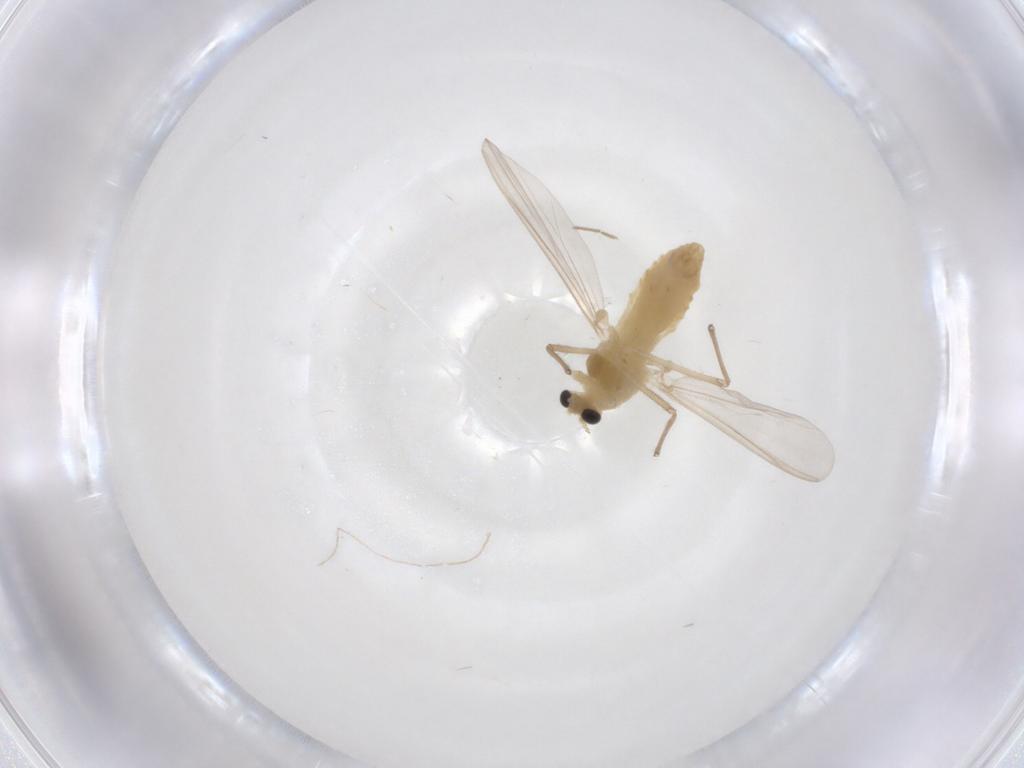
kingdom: Animalia
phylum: Arthropoda
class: Insecta
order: Diptera
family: Chironomidae
